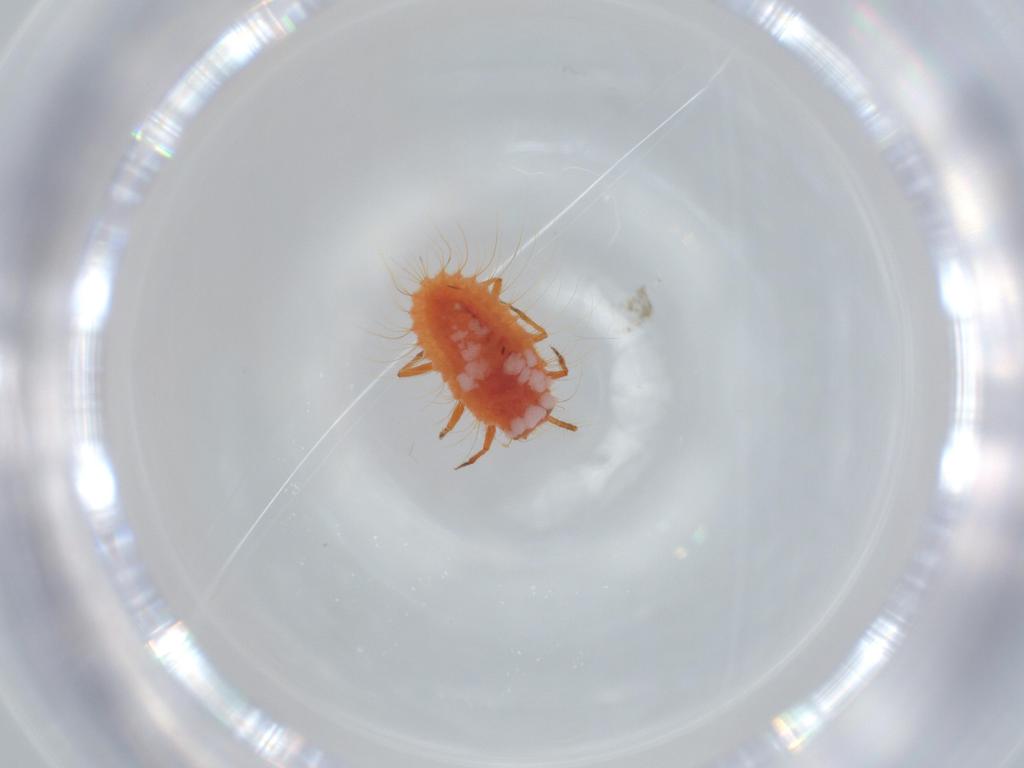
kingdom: Animalia
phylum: Arthropoda
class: Insecta
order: Hemiptera
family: Coccoidea_incertae_sedis
